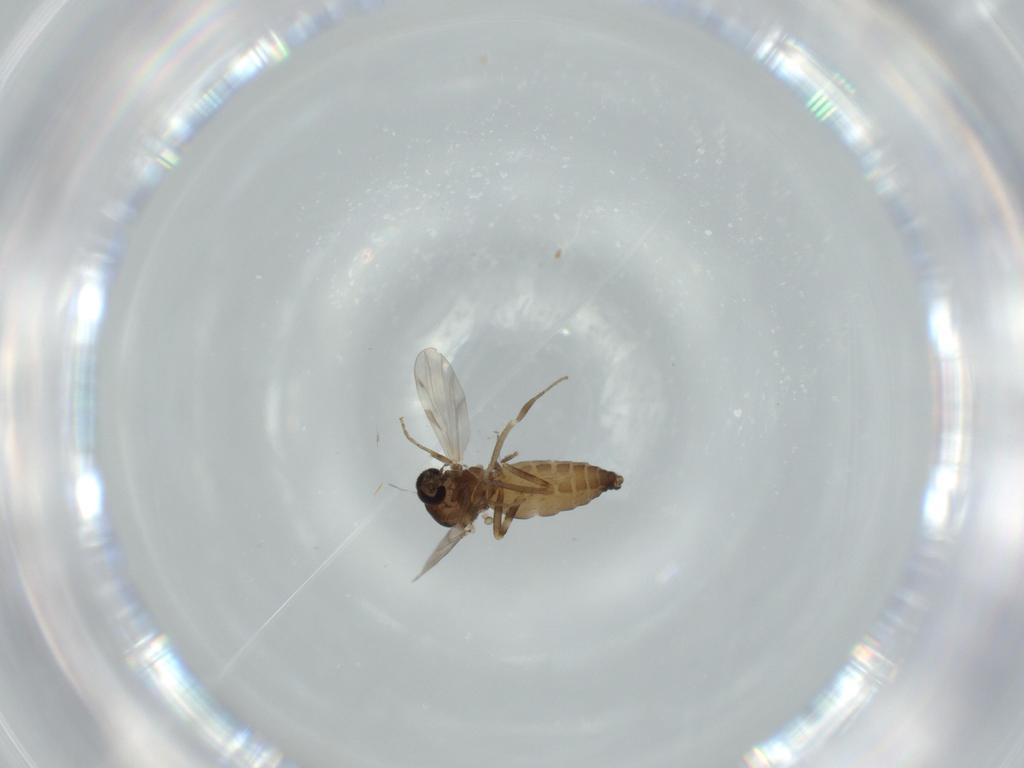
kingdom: Animalia
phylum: Arthropoda
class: Insecta
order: Diptera
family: Ceratopogonidae
